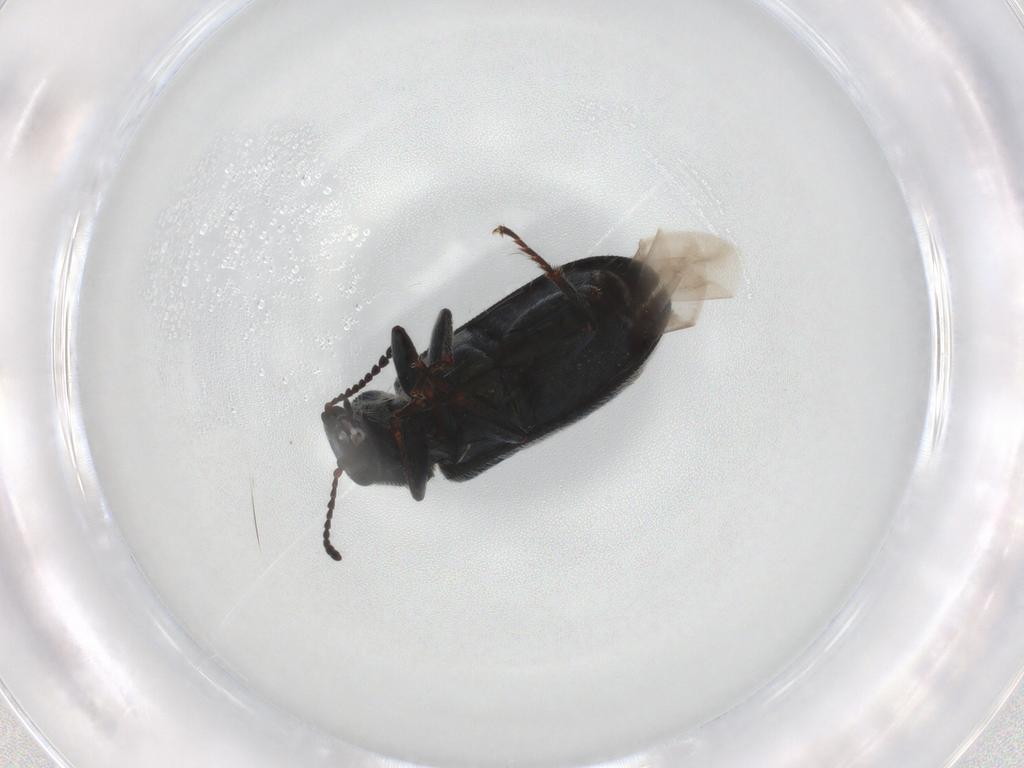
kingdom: Animalia
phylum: Arthropoda
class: Insecta
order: Coleoptera
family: Melyridae
